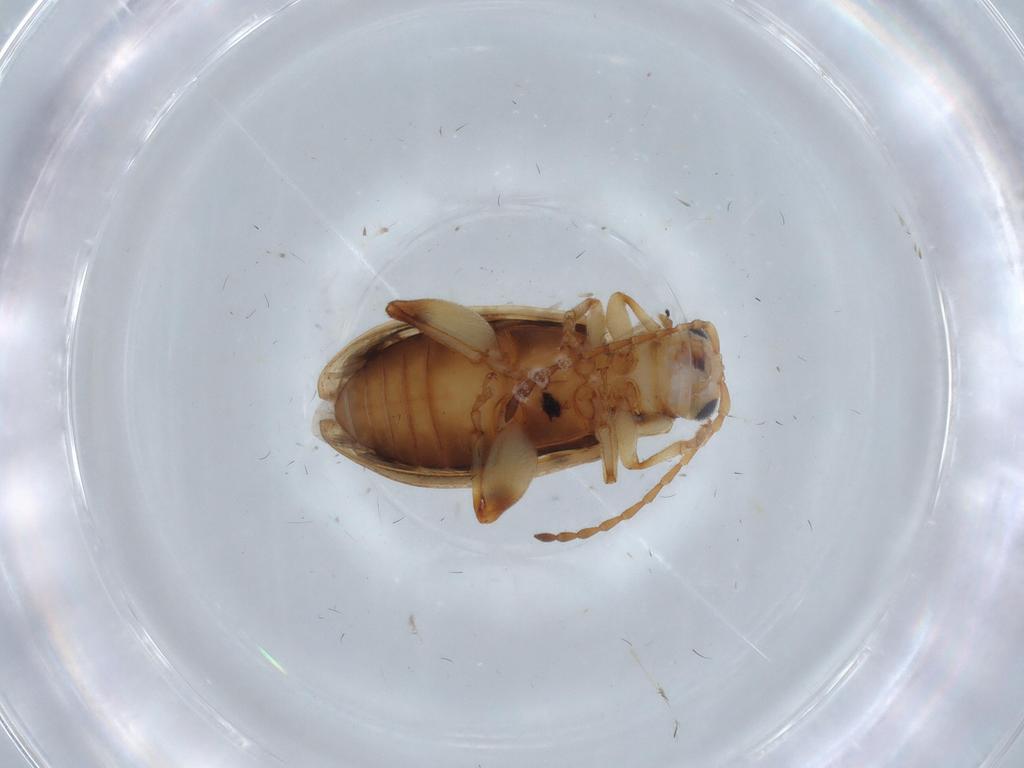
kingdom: Animalia
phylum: Arthropoda
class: Insecta
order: Coleoptera
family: Chrysomelidae
